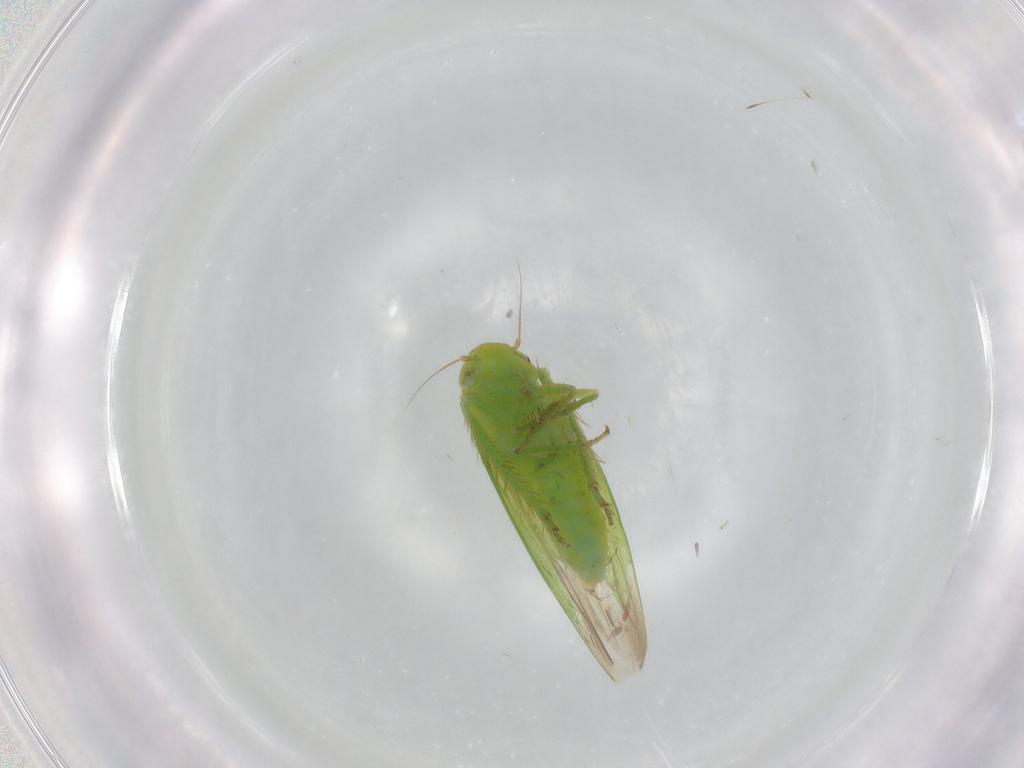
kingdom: Animalia
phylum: Arthropoda
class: Insecta
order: Hemiptera
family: Cicadellidae
